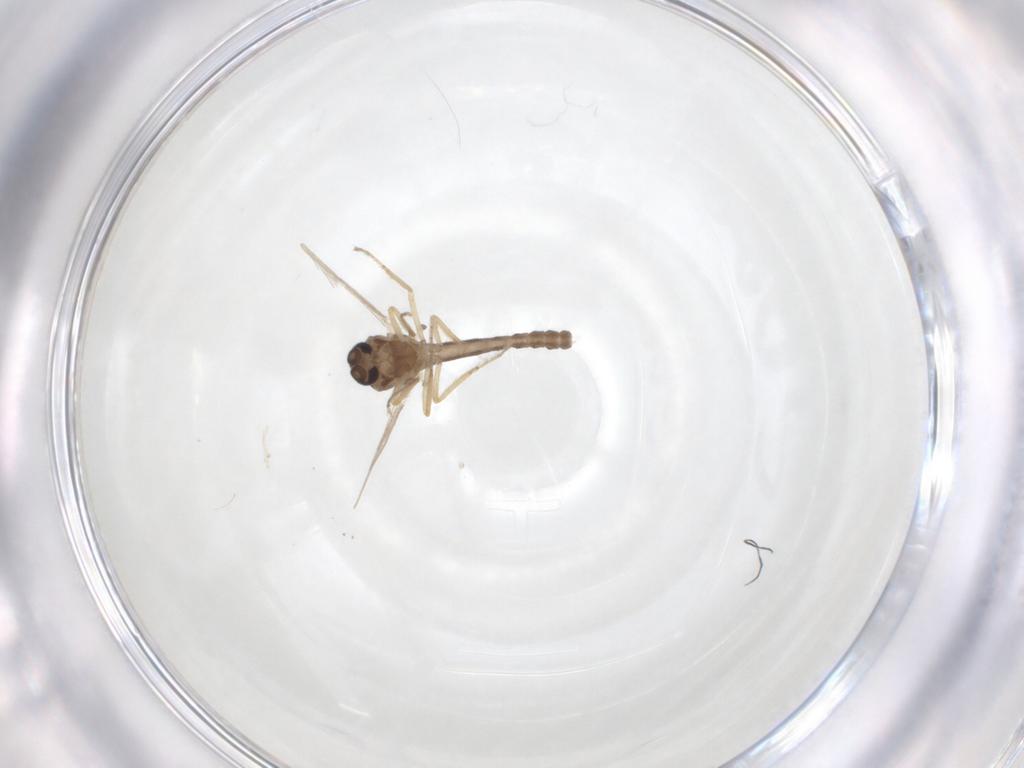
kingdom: Animalia
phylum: Arthropoda
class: Insecta
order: Diptera
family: Ceratopogonidae
